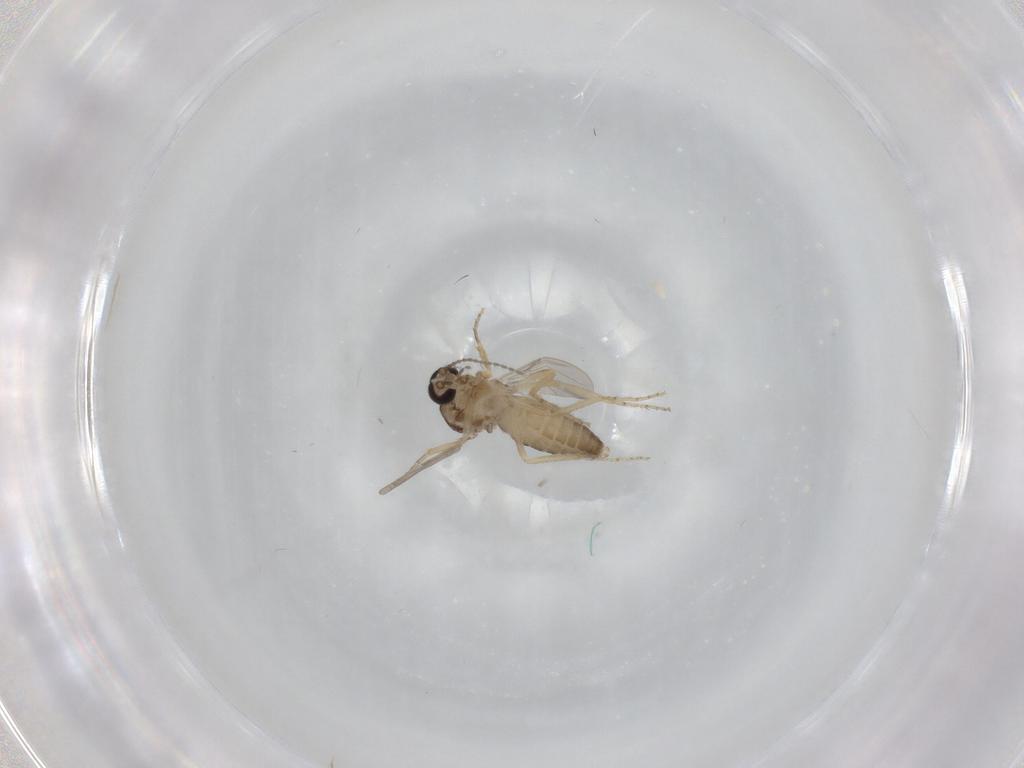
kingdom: Animalia
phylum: Arthropoda
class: Insecta
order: Diptera
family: Ceratopogonidae
